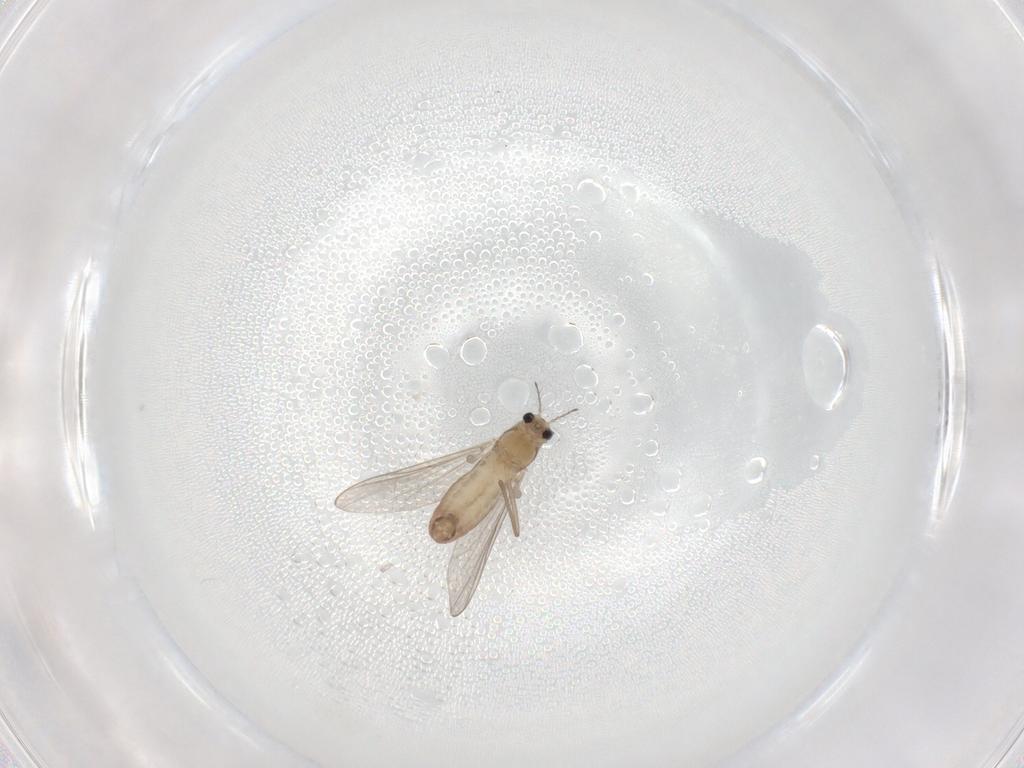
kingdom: Animalia
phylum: Arthropoda
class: Insecta
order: Diptera
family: Chironomidae
